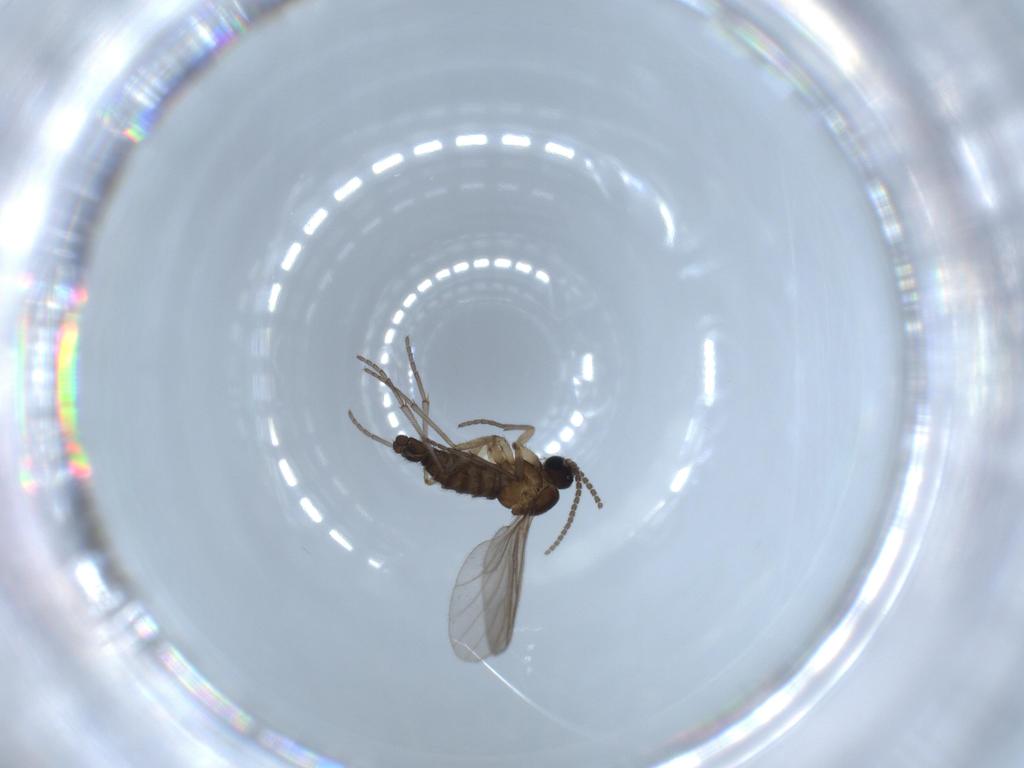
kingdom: Animalia
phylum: Arthropoda
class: Insecta
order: Diptera
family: Sciaridae
